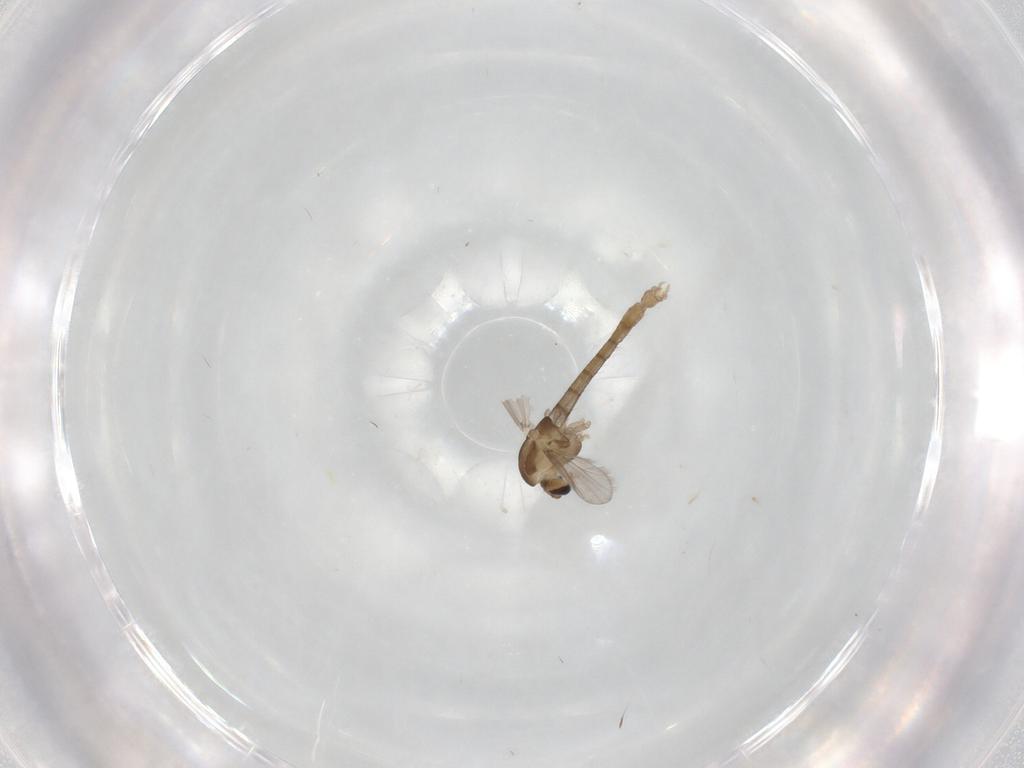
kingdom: Animalia
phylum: Arthropoda
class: Insecta
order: Diptera
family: Chironomidae
